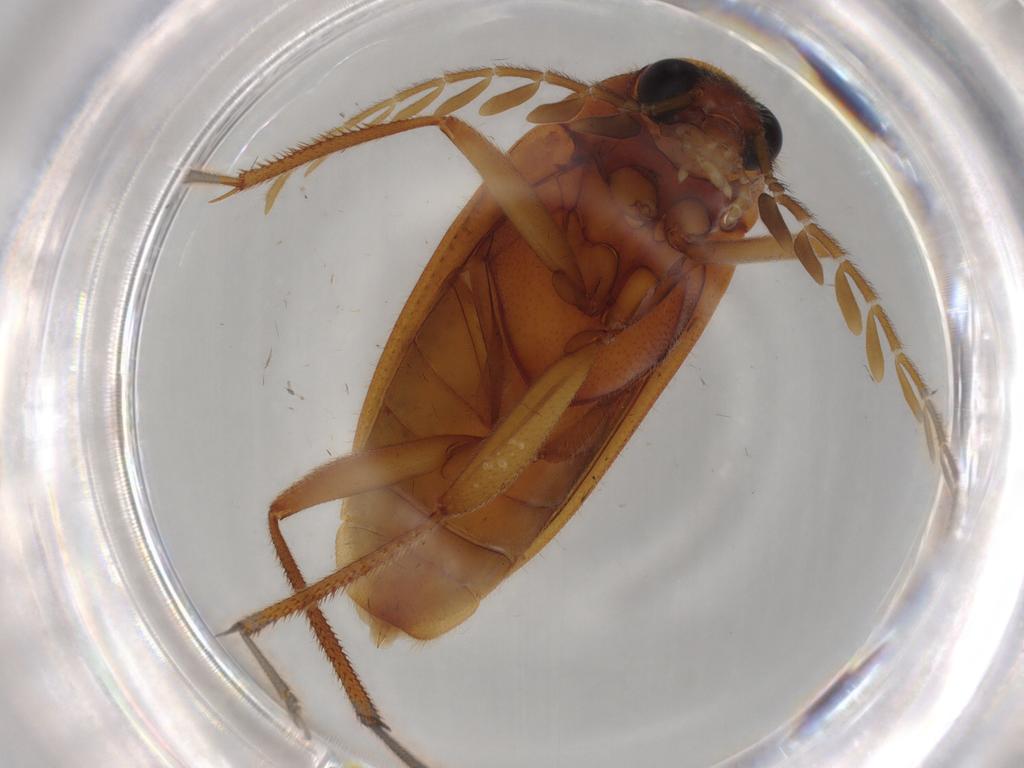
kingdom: Animalia
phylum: Arthropoda
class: Insecta
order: Coleoptera
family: Ptilodactylidae
